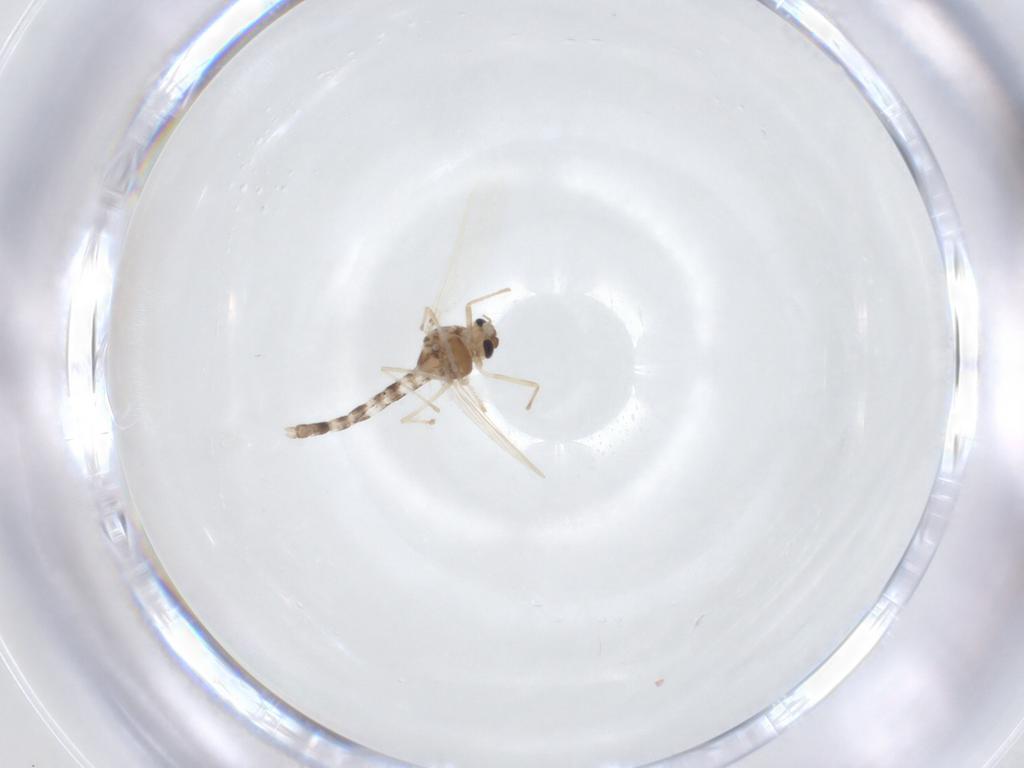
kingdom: Animalia
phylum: Arthropoda
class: Insecta
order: Diptera
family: Chironomidae
